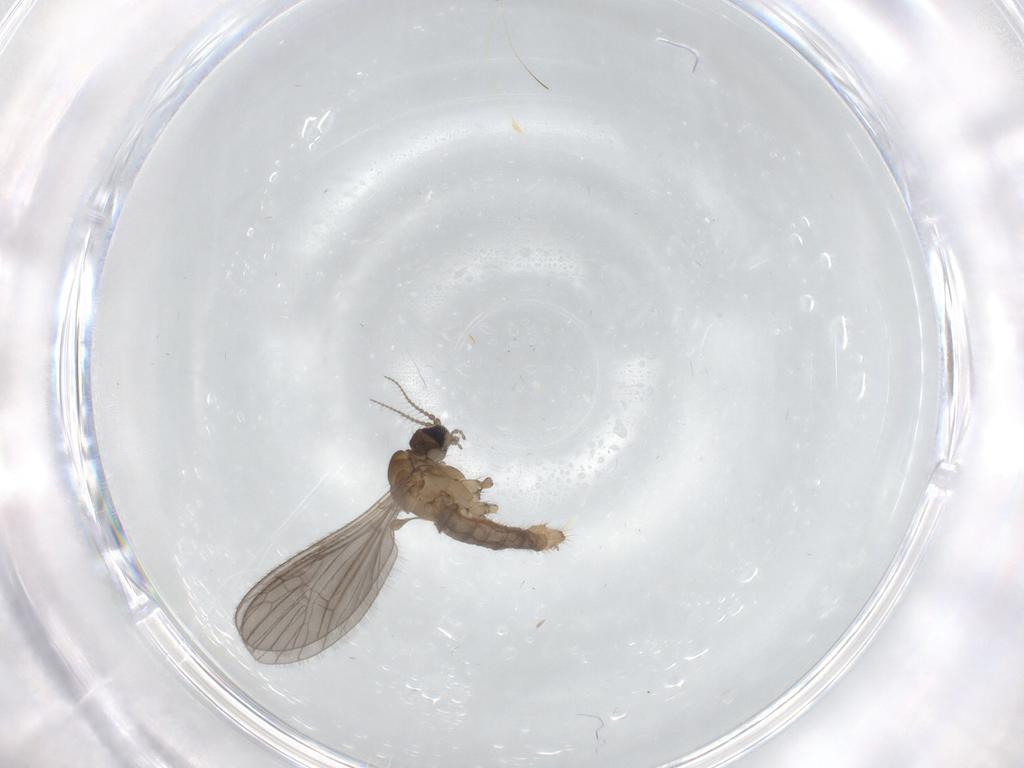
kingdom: Animalia
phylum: Arthropoda
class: Insecta
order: Diptera
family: Limoniidae
